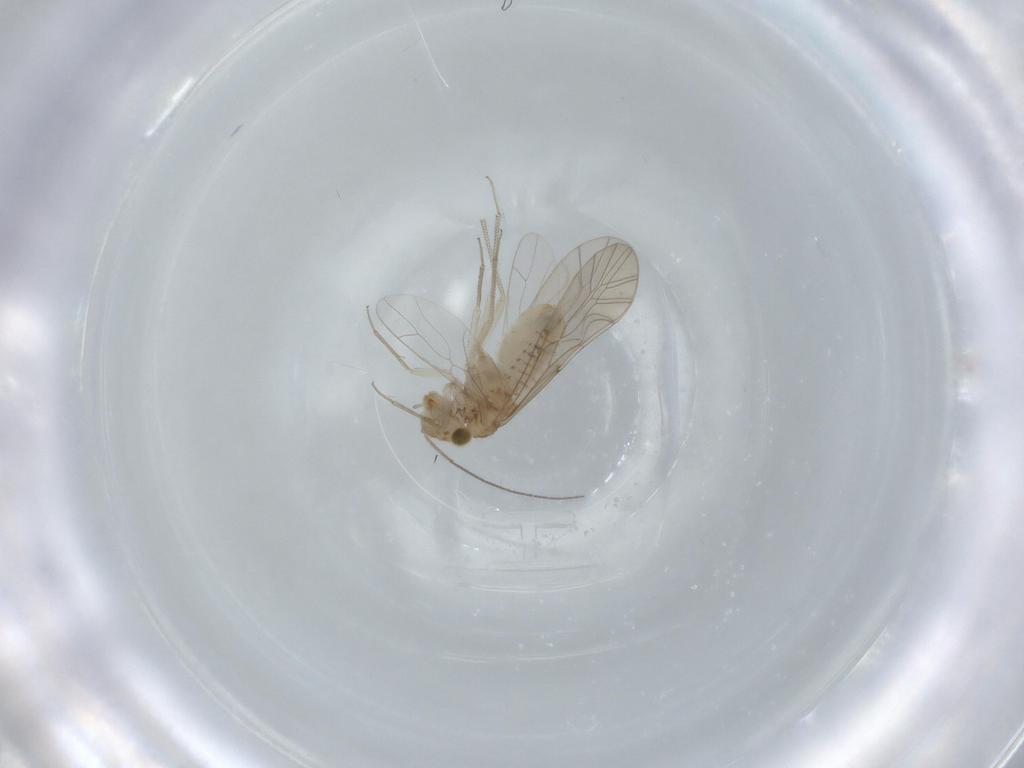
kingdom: Animalia
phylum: Arthropoda
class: Insecta
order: Psocodea
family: Lachesillidae
